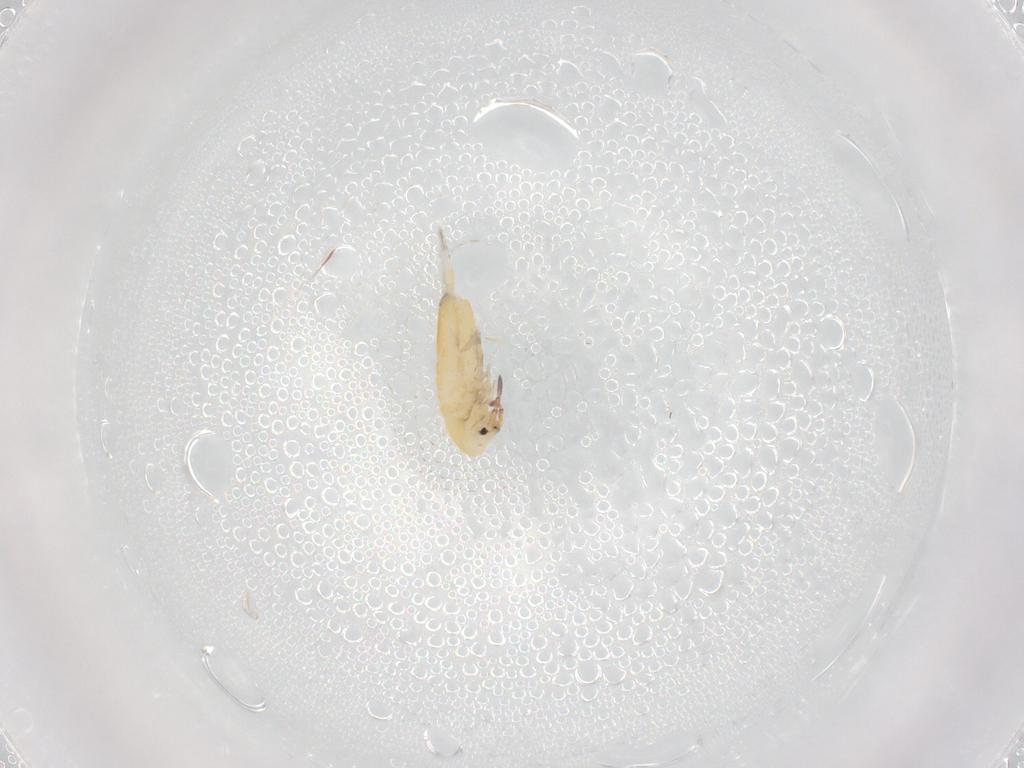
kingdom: Animalia
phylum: Arthropoda
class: Collembola
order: Entomobryomorpha
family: Entomobryidae
